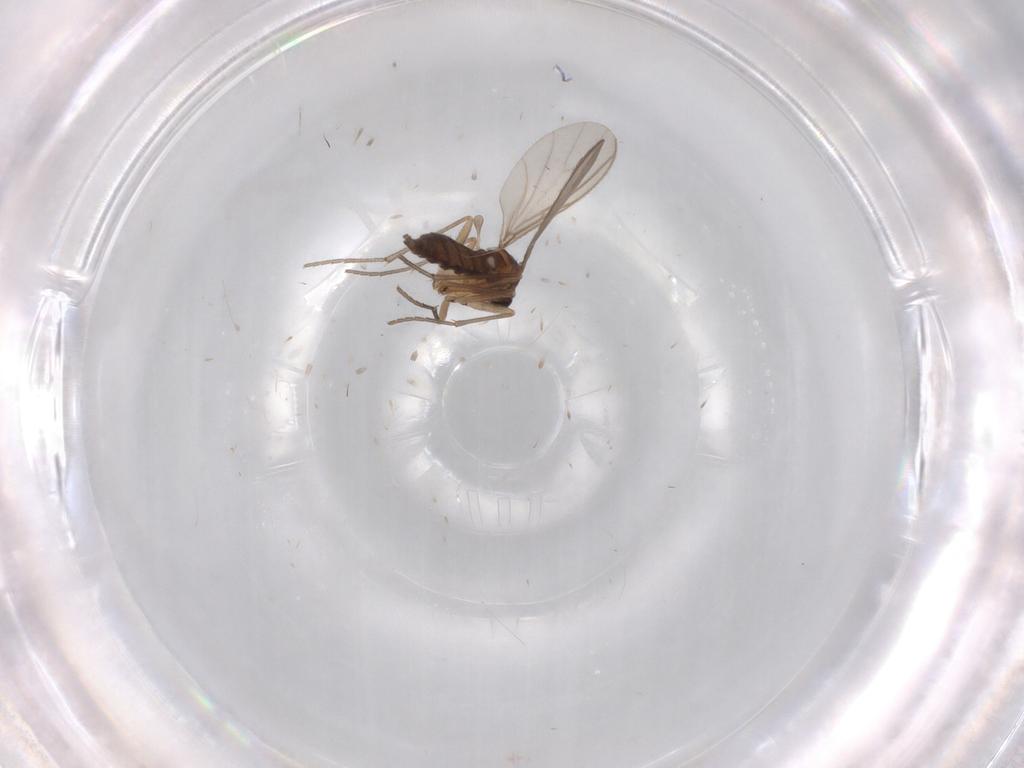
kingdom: Animalia
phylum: Arthropoda
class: Insecta
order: Diptera
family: Sciaridae
